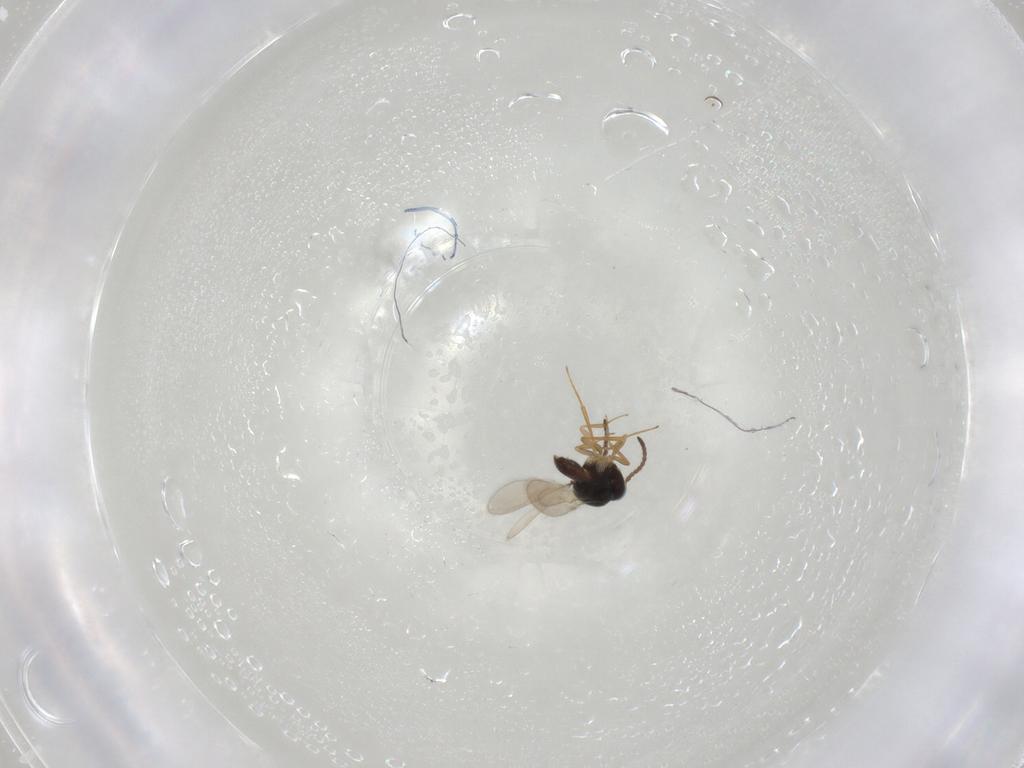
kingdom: Animalia
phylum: Arthropoda
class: Insecta
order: Hymenoptera
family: Scelionidae
